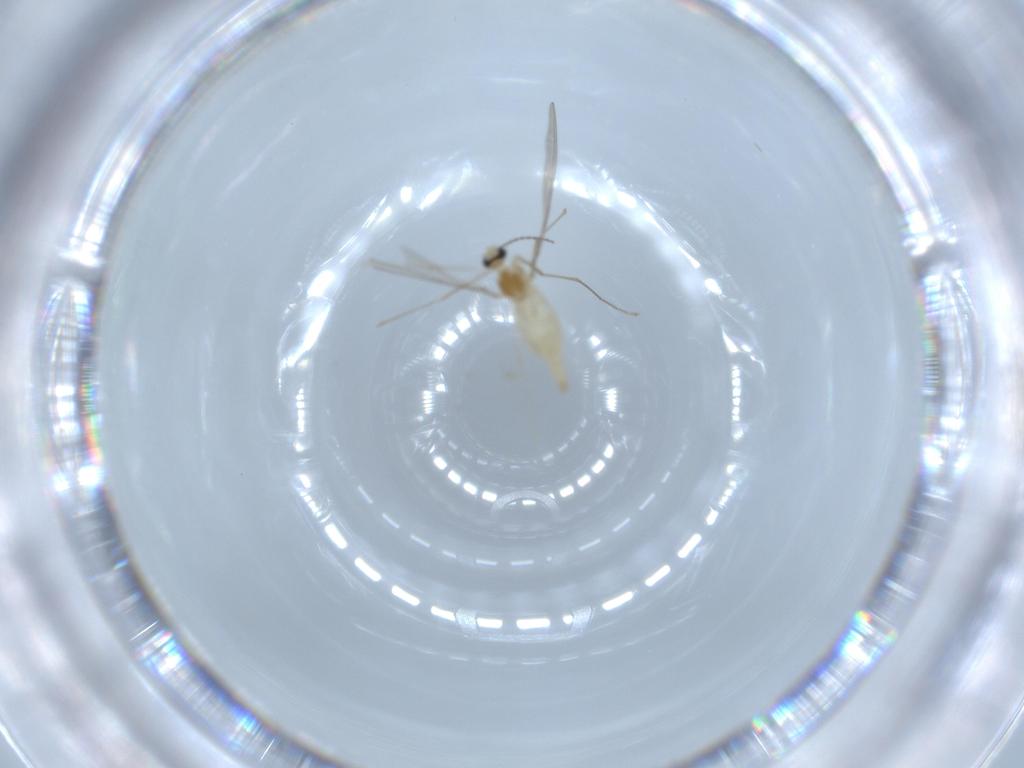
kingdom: Animalia
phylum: Arthropoda
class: Insecta
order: Diptera
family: Cecidomyiidae
